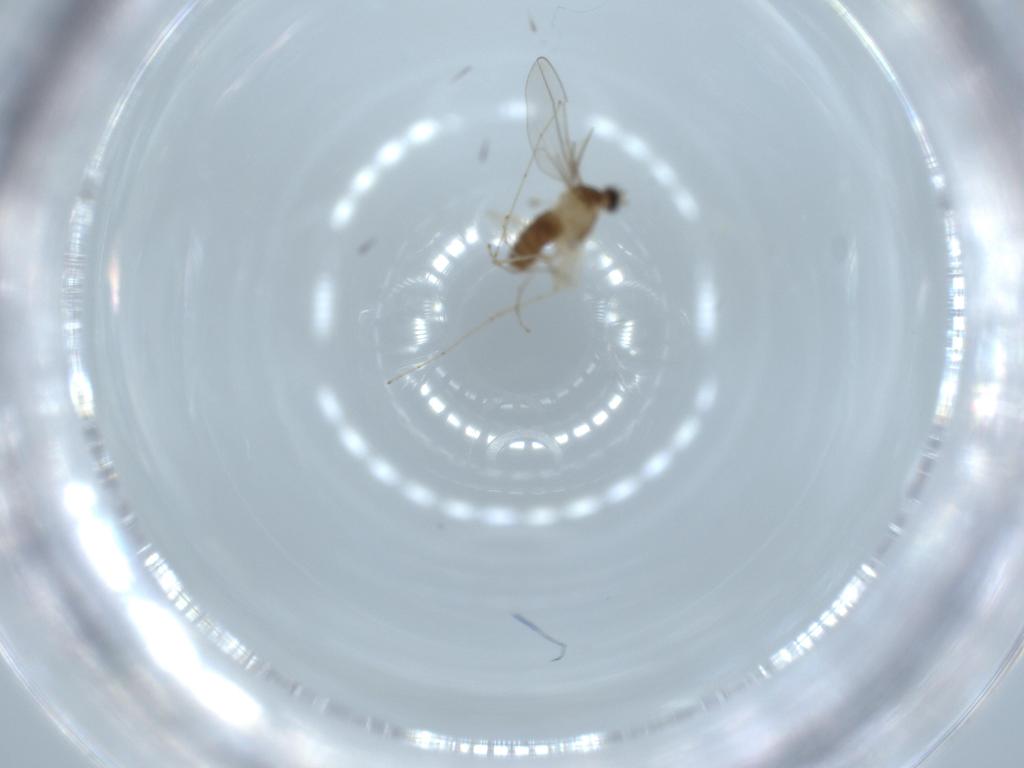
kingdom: Animalia
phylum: Arthropoda
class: Insecta
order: Diptera
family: Cecidomyiidae
